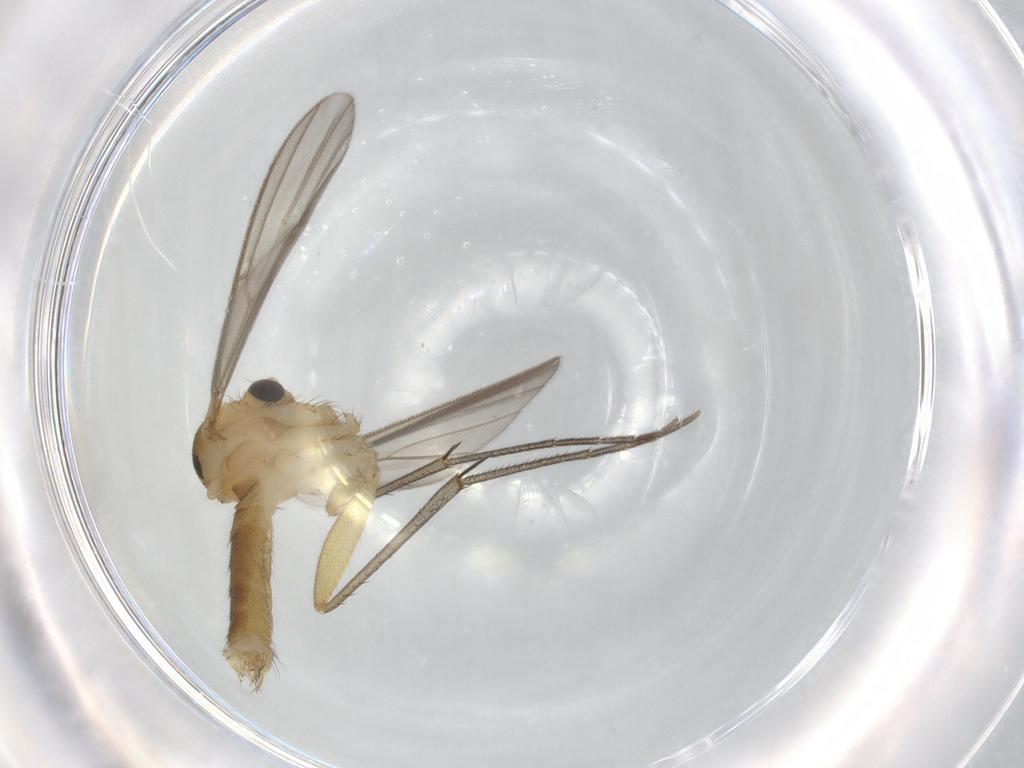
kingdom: Animalia
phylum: Arthropoda
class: Insecta
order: Diptera
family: Mycetophilidae
